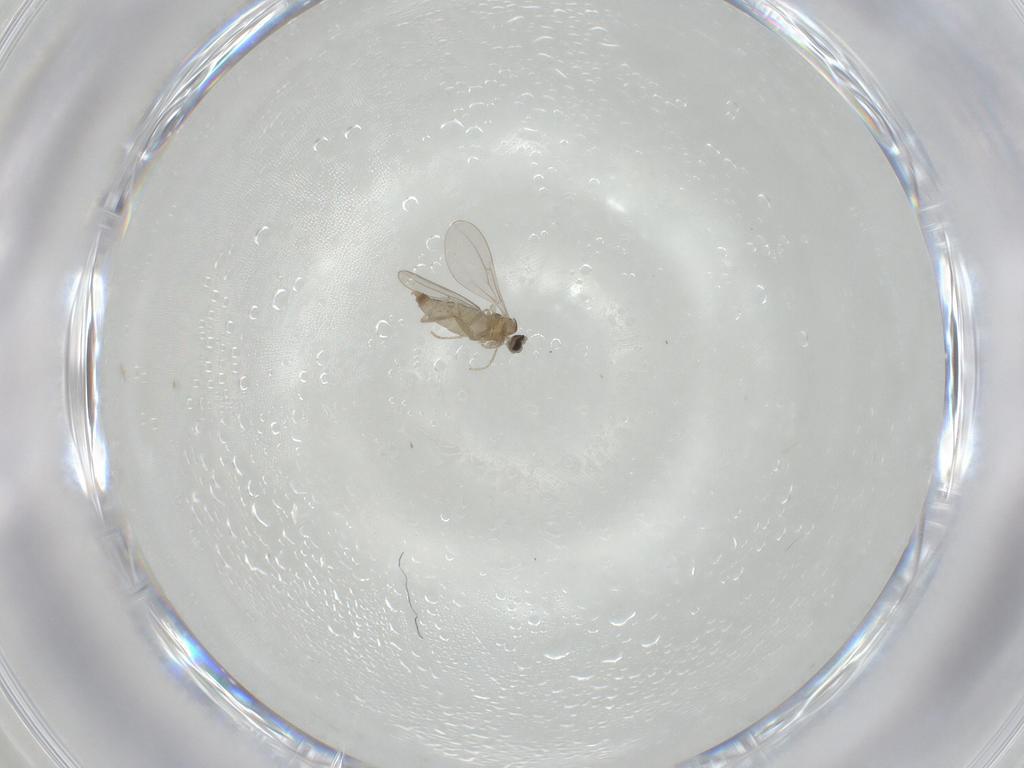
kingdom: Animalia
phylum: Arthropoda
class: Insecta
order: Diptera
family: Cecidomyiidae
